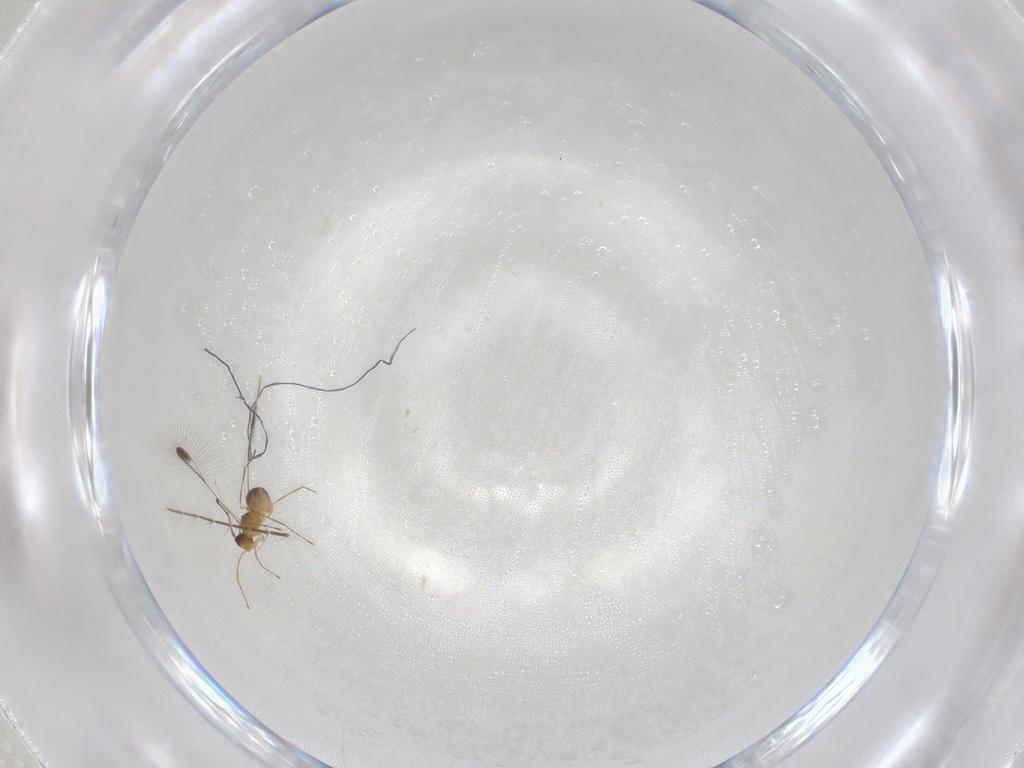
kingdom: Animalia
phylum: Arthropoda
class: Insecta
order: Hymenoptera
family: Mymaridae
